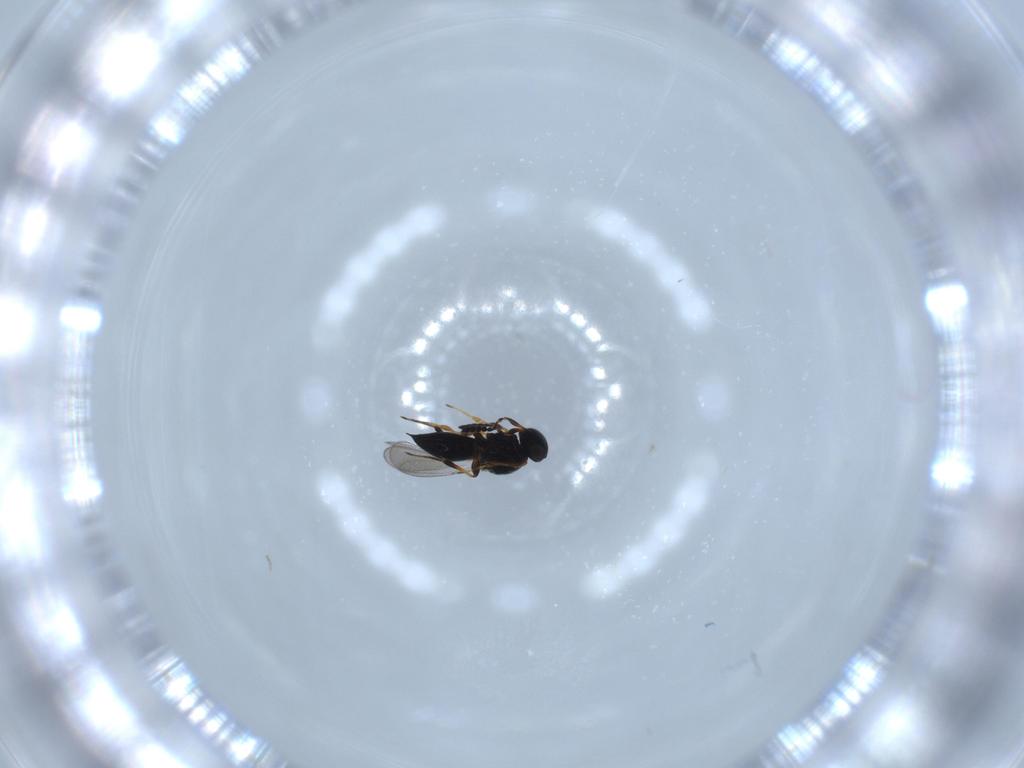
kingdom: Animalia
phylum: Arthropoda
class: Insecta
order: Hymenoptera
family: Platygastridae
